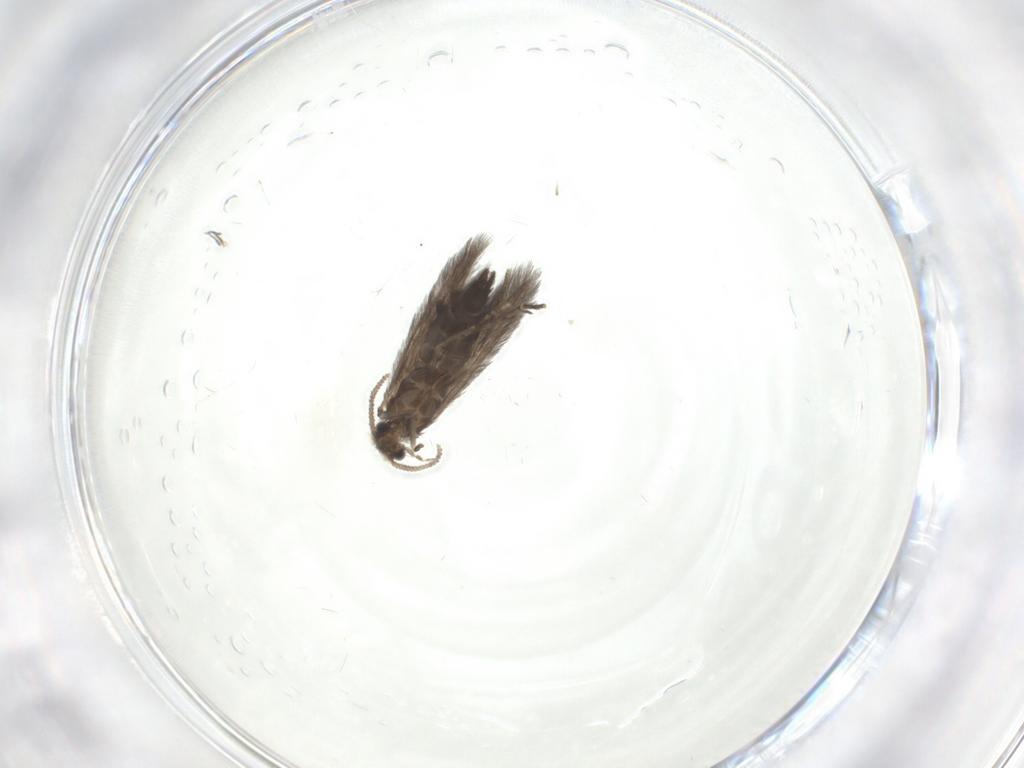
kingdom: Animalia
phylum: Arthropoda
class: Insecta
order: Trichoptera
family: Hydroptilidae
